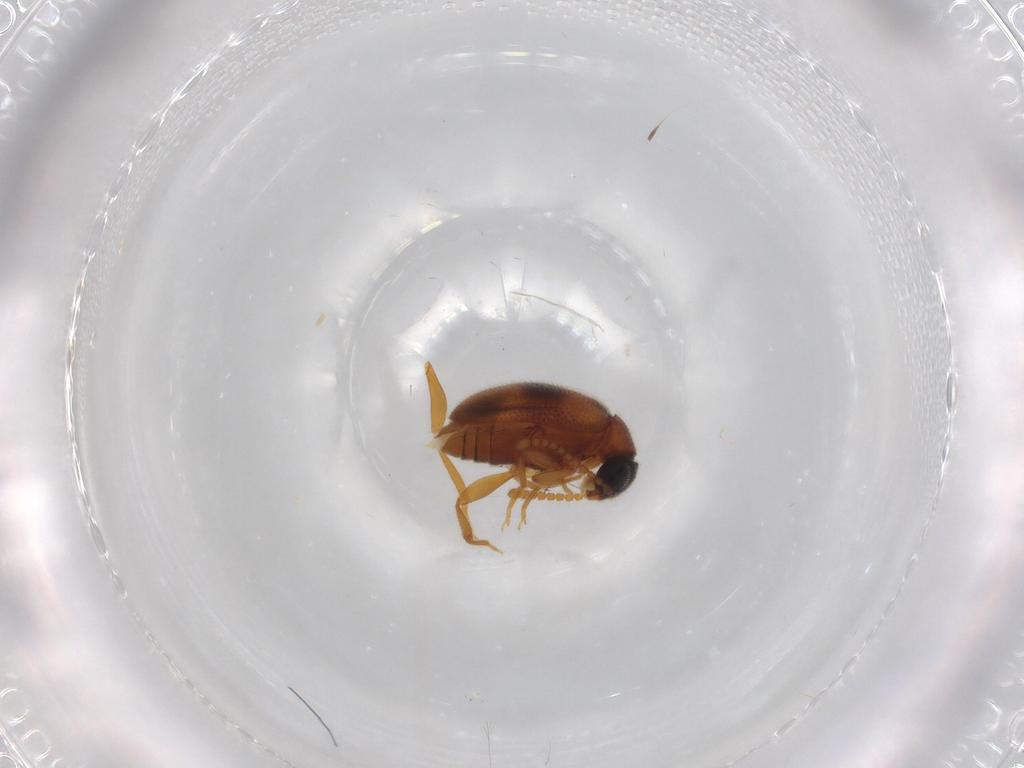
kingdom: Animalia
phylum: Arthropoda
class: Insecta
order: Coleoptera
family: Aderidae
